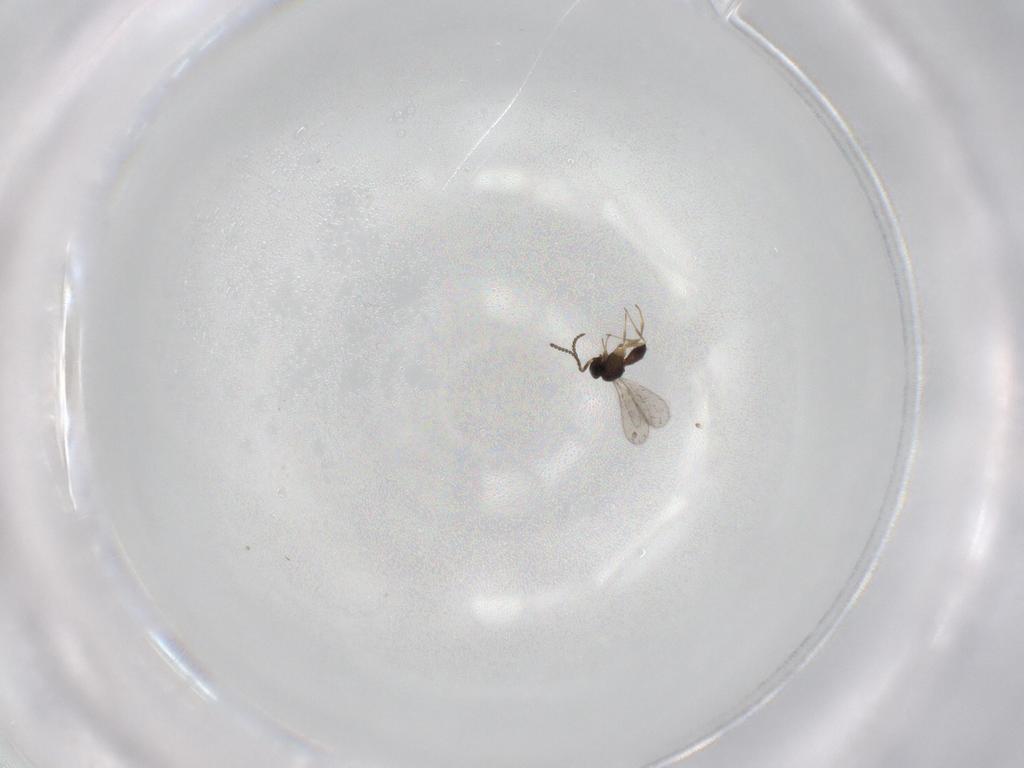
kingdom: Animalia
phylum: Arthropoda
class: Insecta
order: Hymenoptera
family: Scelionidae
